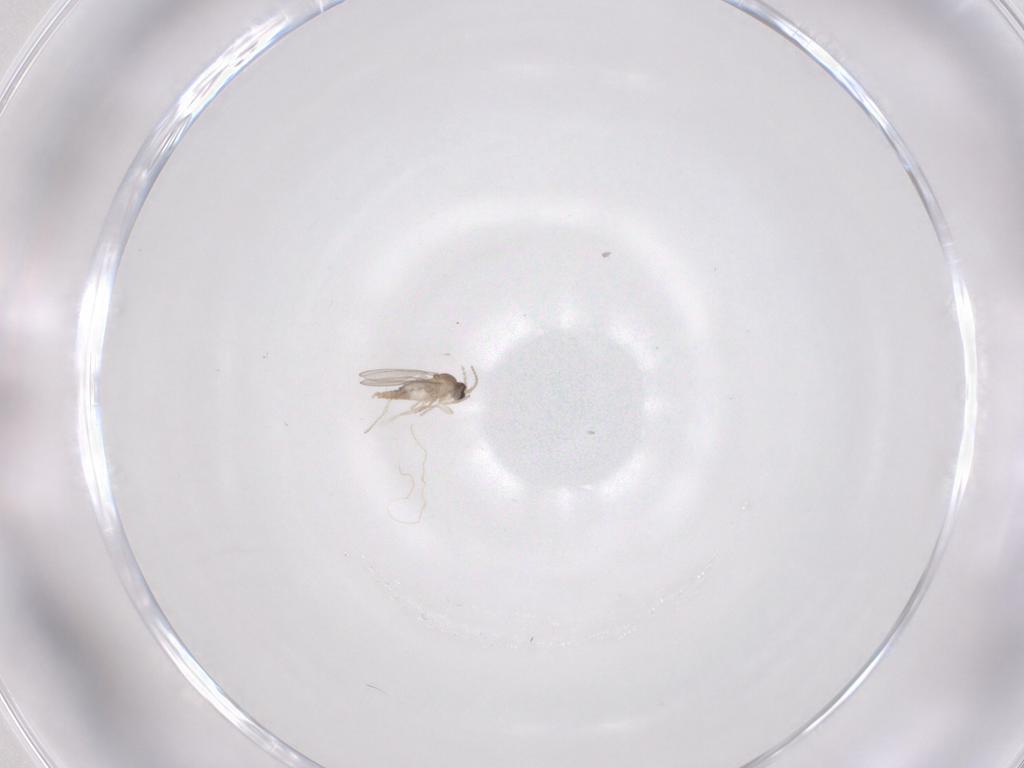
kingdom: Animalia
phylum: Arthropoda
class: Insecta
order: Diptera
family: Cecidomyiidae
